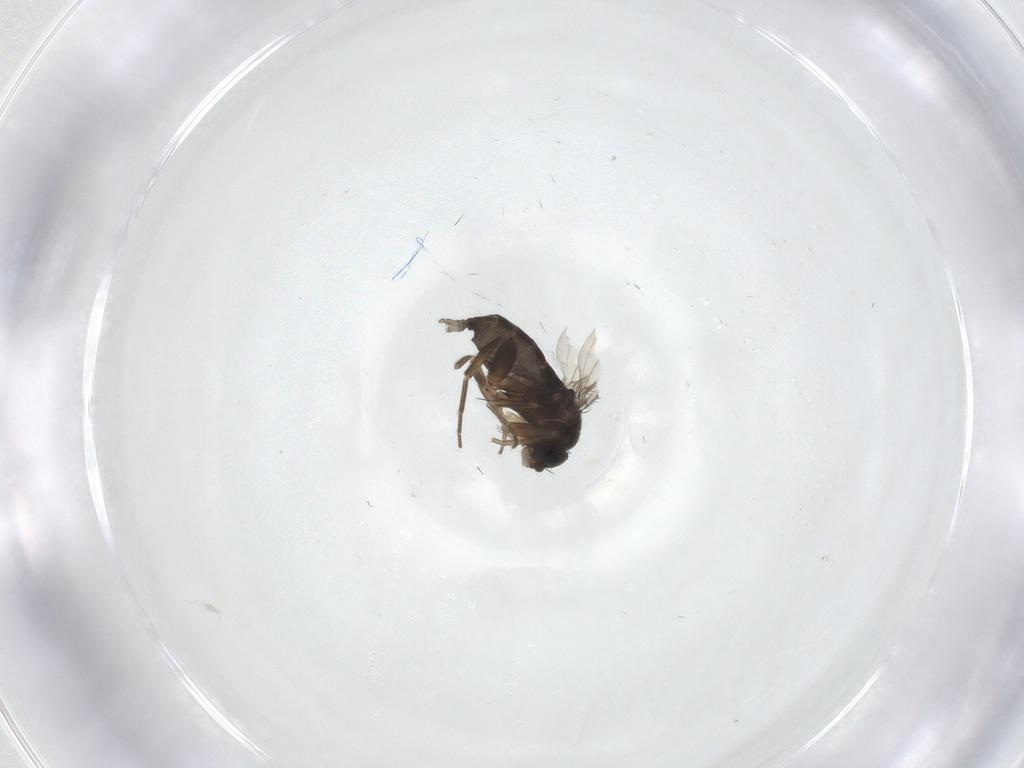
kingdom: Animalia
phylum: Arthropoda
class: Insecta
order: Diptera
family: Phoridae
